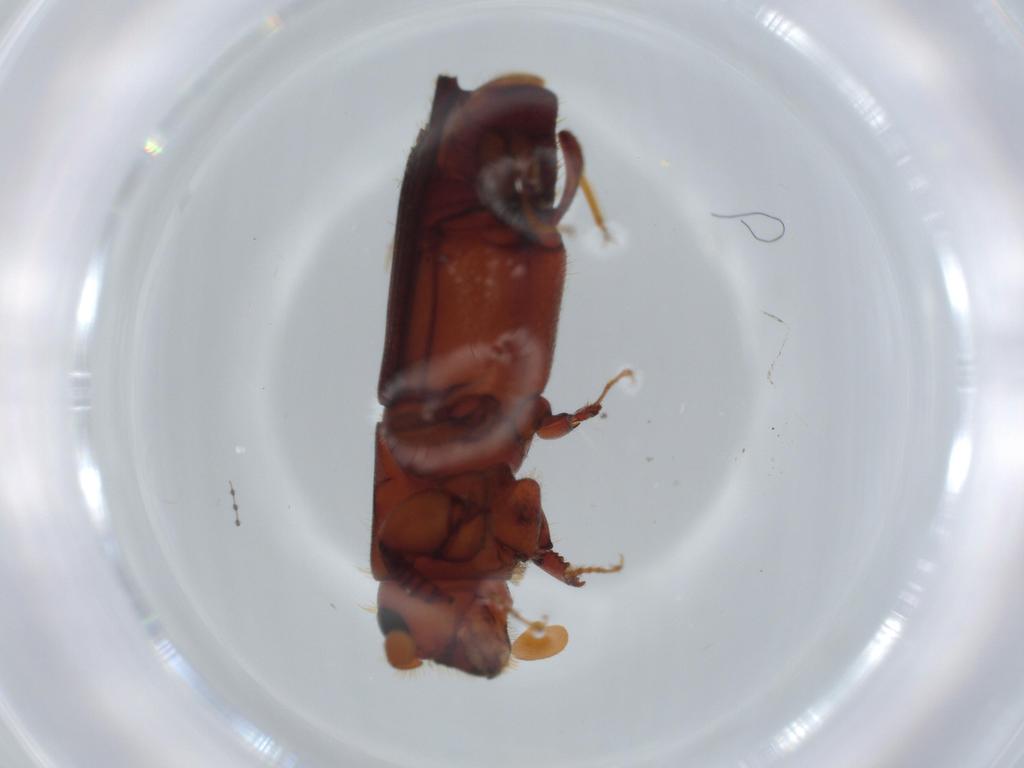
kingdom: Animalia
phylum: Arthropoda
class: Insecta
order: Coleoptera
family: Curculionidae
